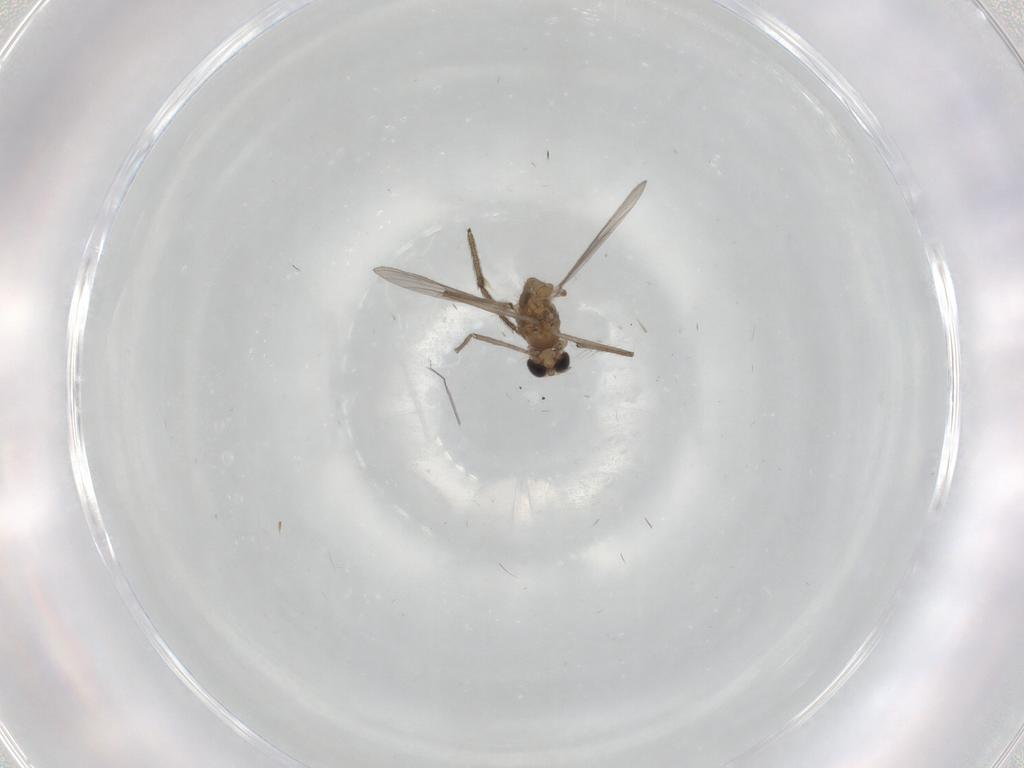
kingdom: Animalia
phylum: Arthropoda
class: Insecta
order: Diptera
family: Chironomidae
